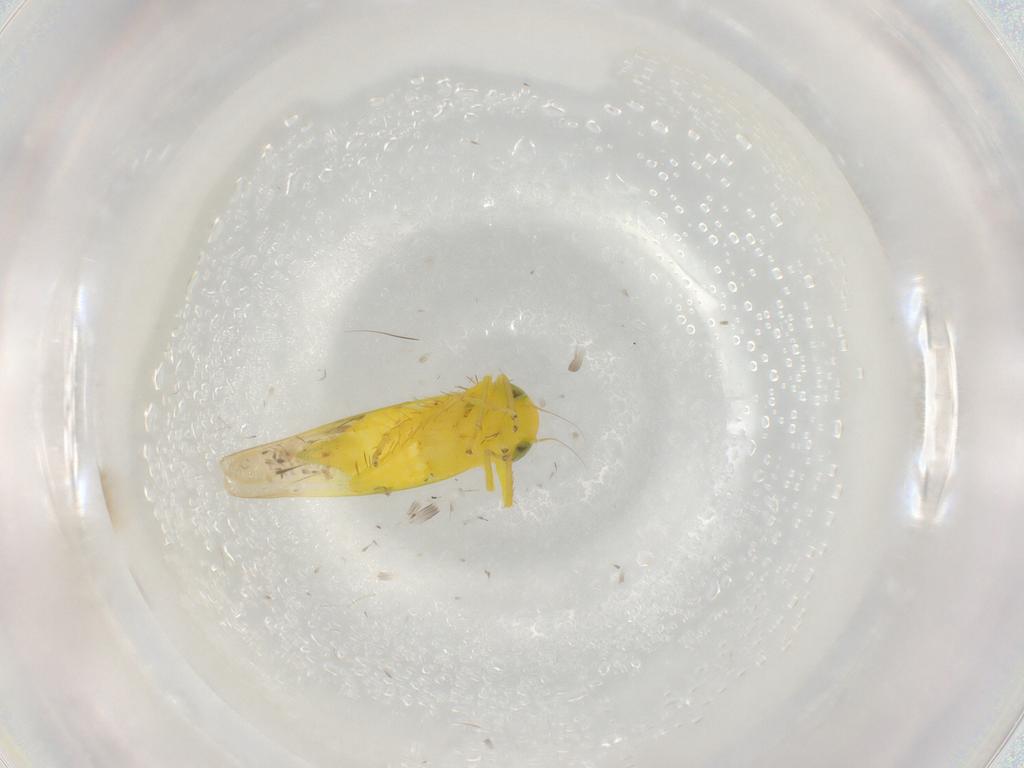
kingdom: Animalia
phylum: Arthropoda
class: Insecta
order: Hemiptera
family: Cicadellidae
